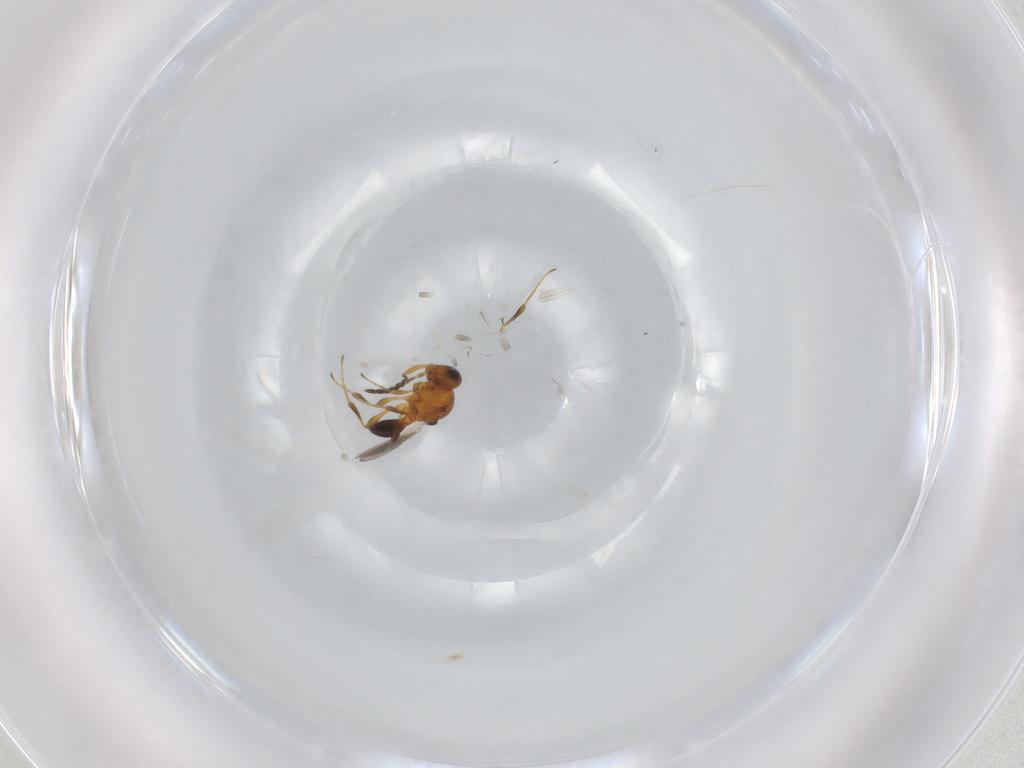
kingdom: Animalia
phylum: Arthropoda
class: Insecta
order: Hymenoptera
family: Platygastridae
